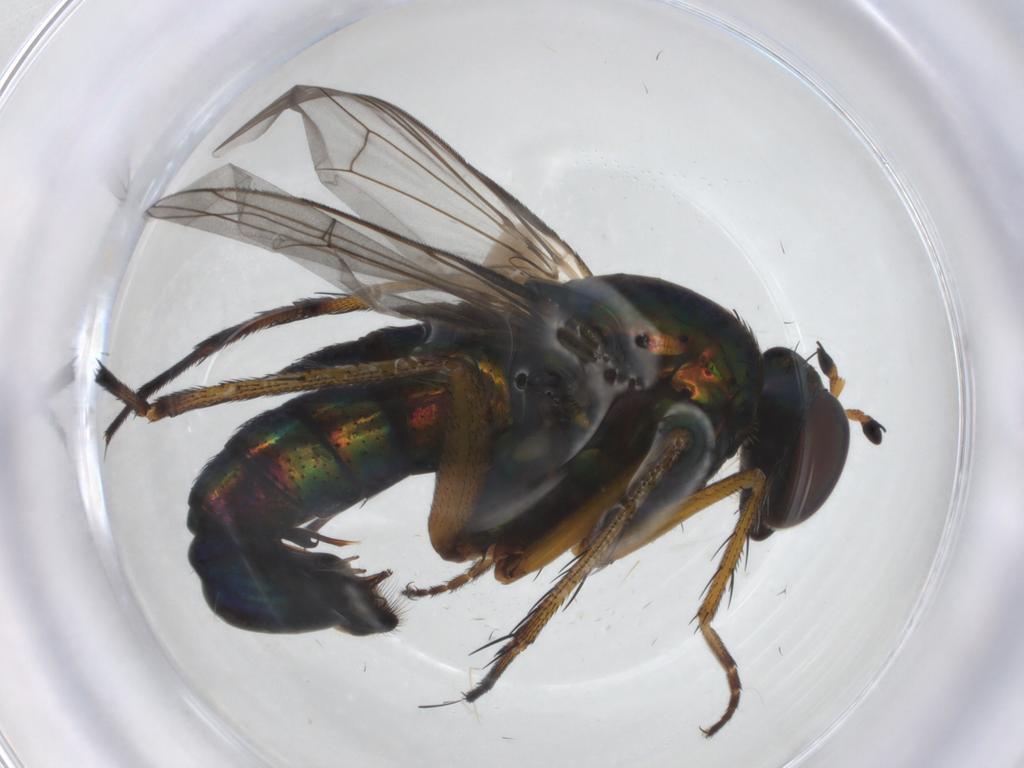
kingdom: Animalia
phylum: Arthropoda
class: Insecta
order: Diptera
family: Dolichopodidae
